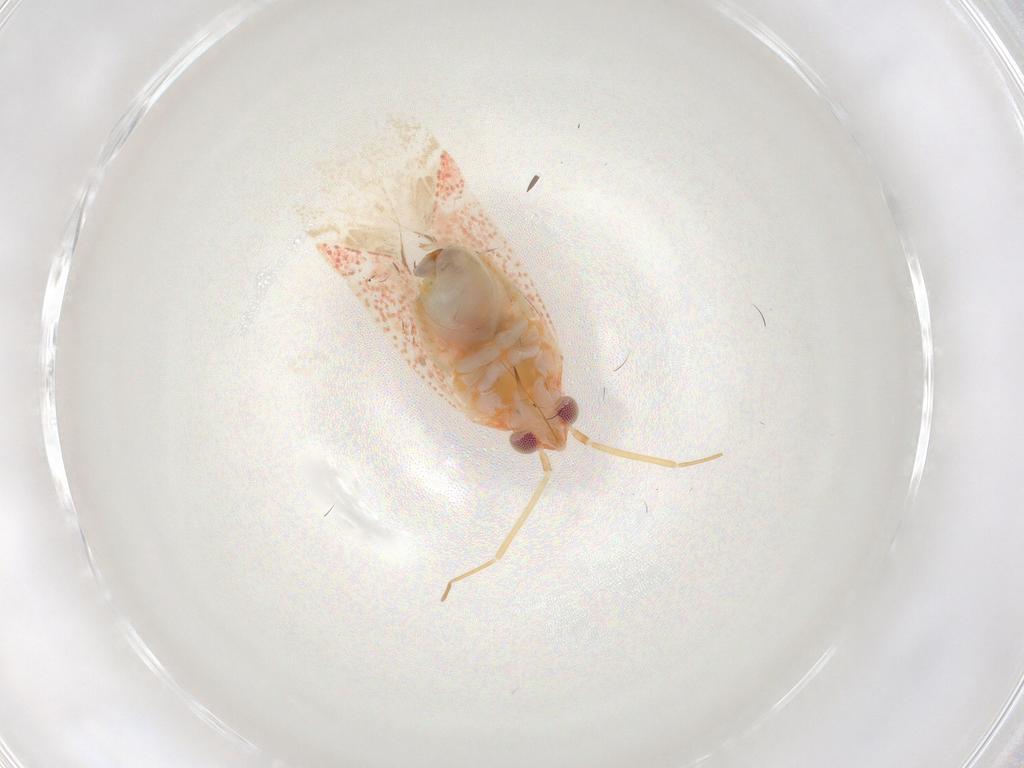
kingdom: Animalia
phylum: Arthropoda
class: Insecta
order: Hemiptera
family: Miridae
